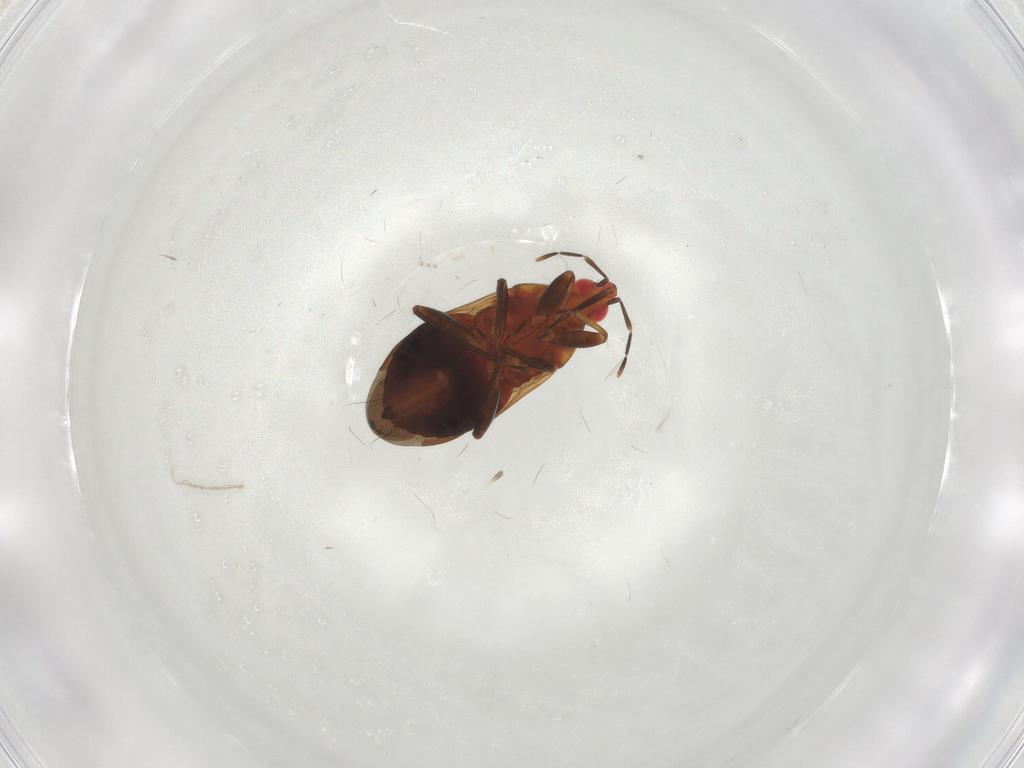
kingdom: Animalia
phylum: Arthropoda
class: Insecta
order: Hemiptera
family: Anthocoridae
